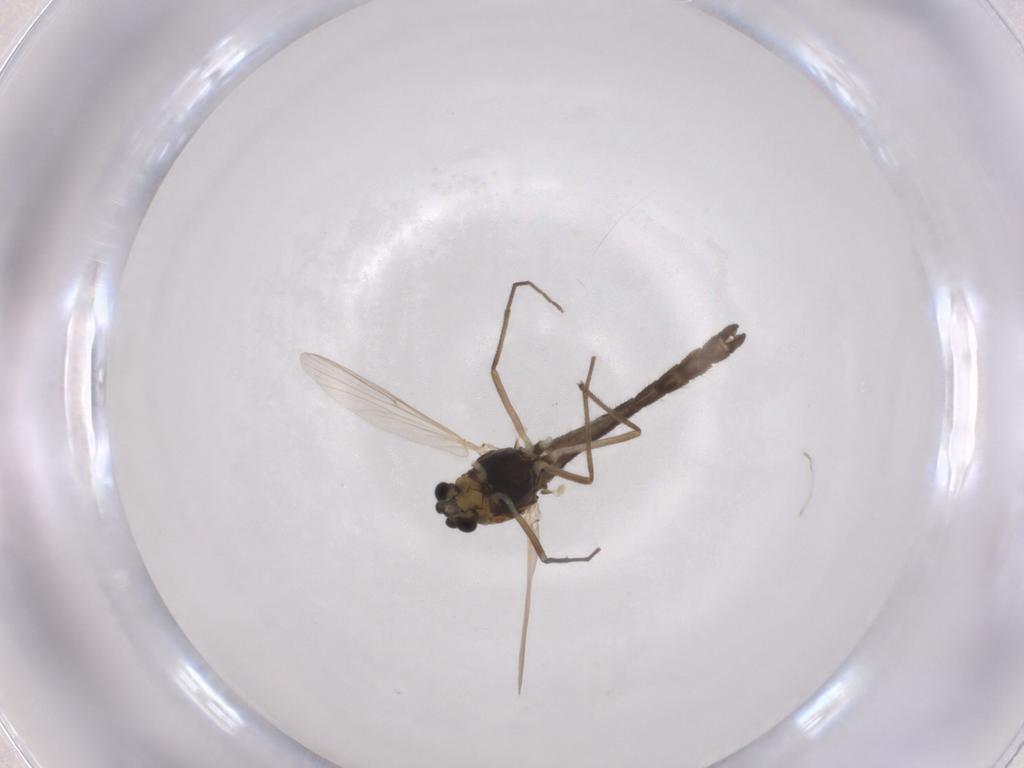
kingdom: Animalia
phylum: Arthropoda
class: Insecta
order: Diptera
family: Chironomidae
